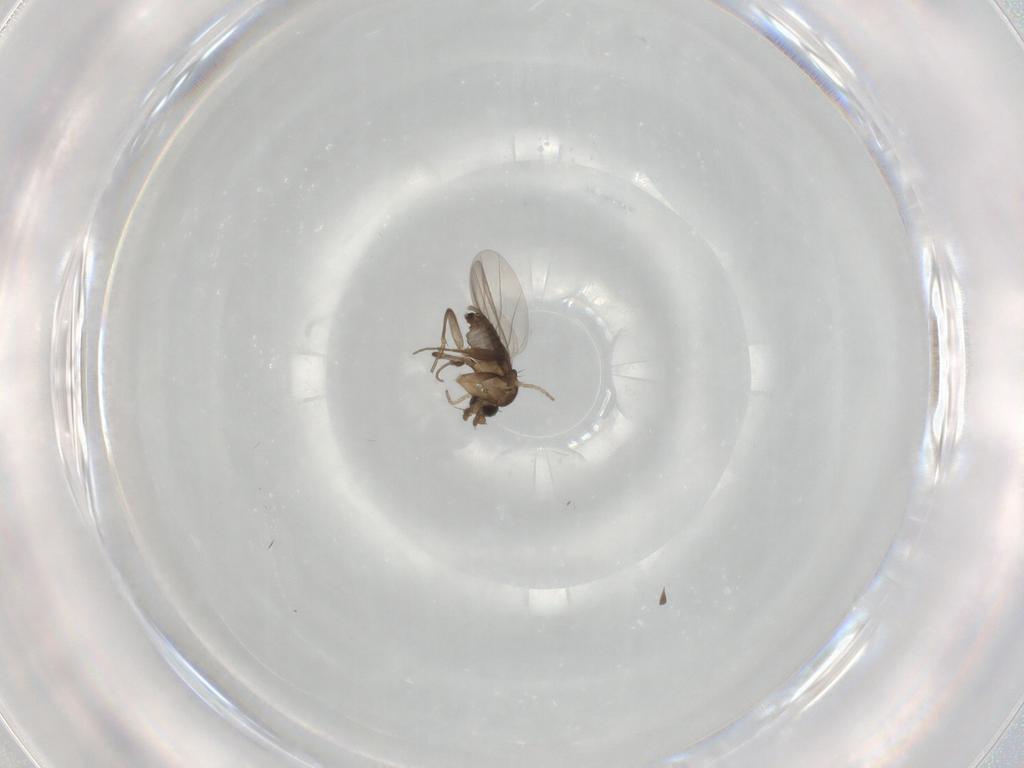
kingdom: Animalia
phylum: Arthropoda
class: Insecta
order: Diptera
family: Phoridae
